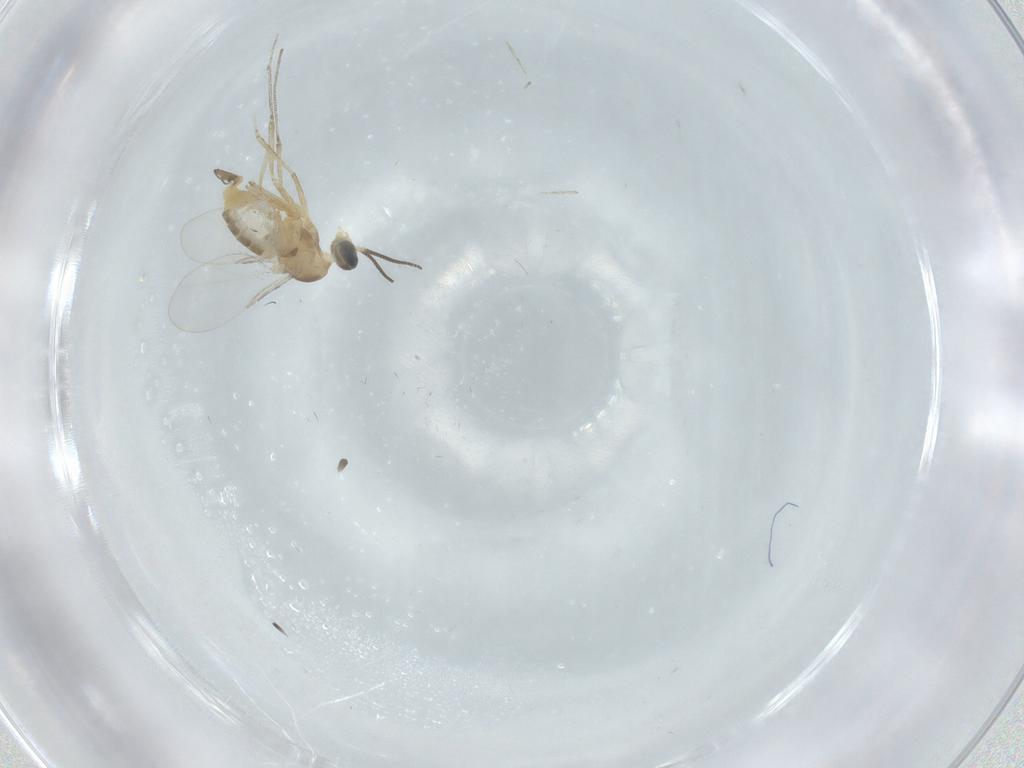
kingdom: Animalia
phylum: Arthropoda
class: Insecta
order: Diptera
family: Cecidomyiidae
